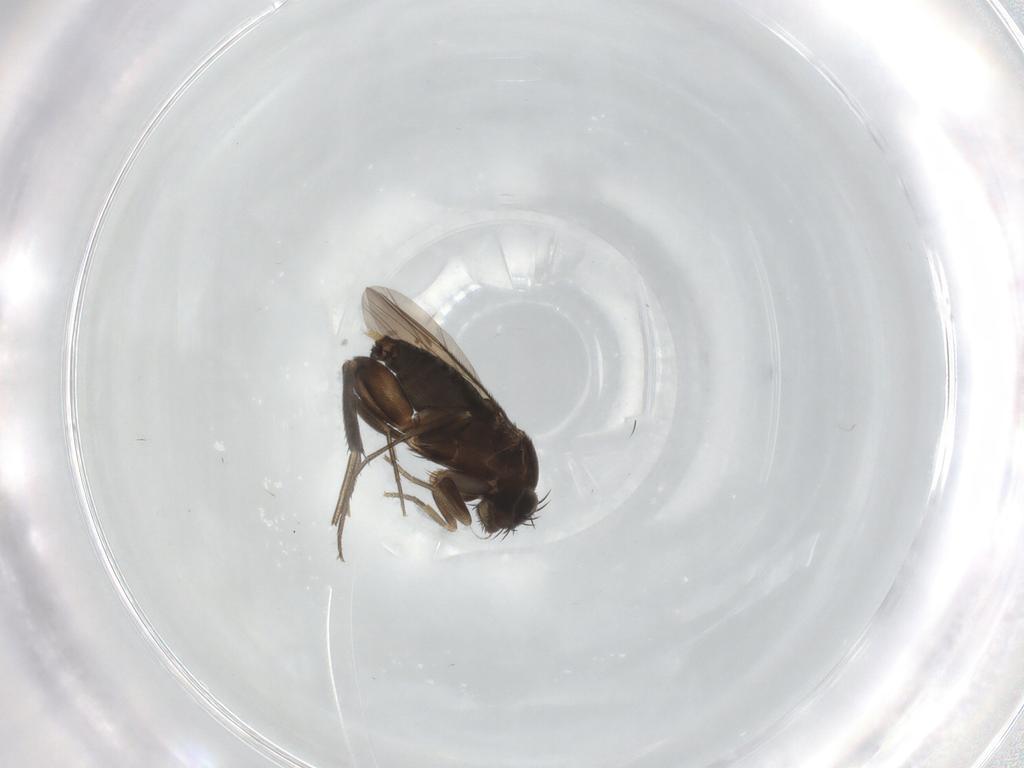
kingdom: Animalia
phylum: Arthropoda
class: Insecta
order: Diptera
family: Phoridae
